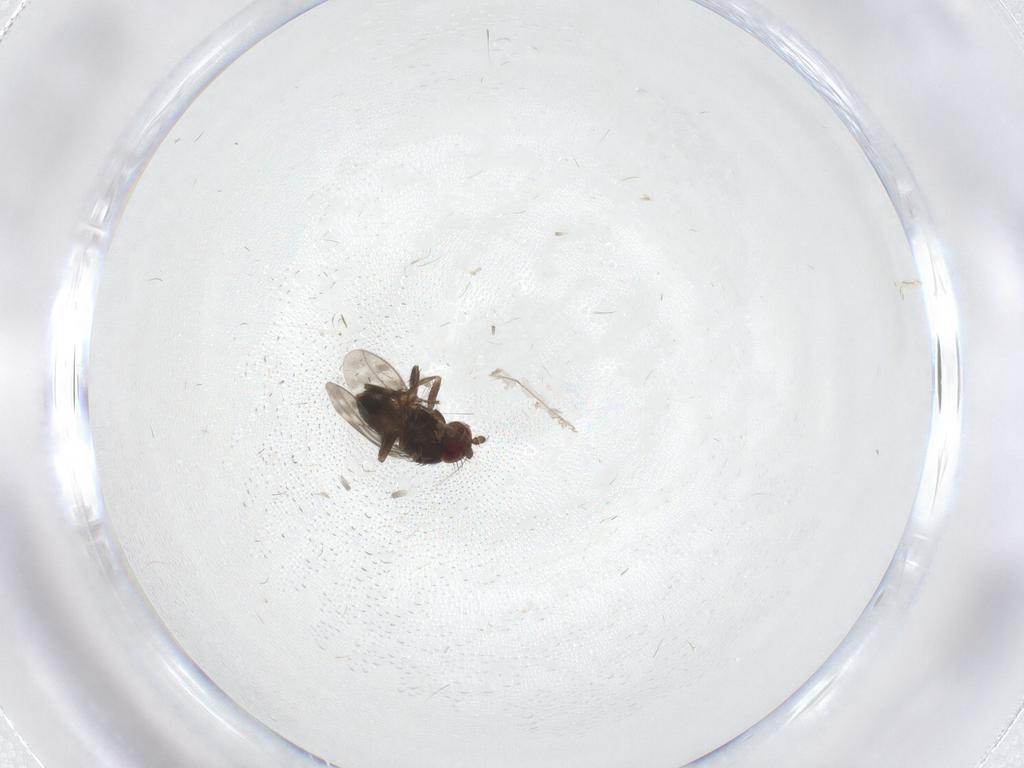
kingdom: Animalia
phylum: Arthropoda
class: Insecta
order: Diptera
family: Sphaeroceridae
